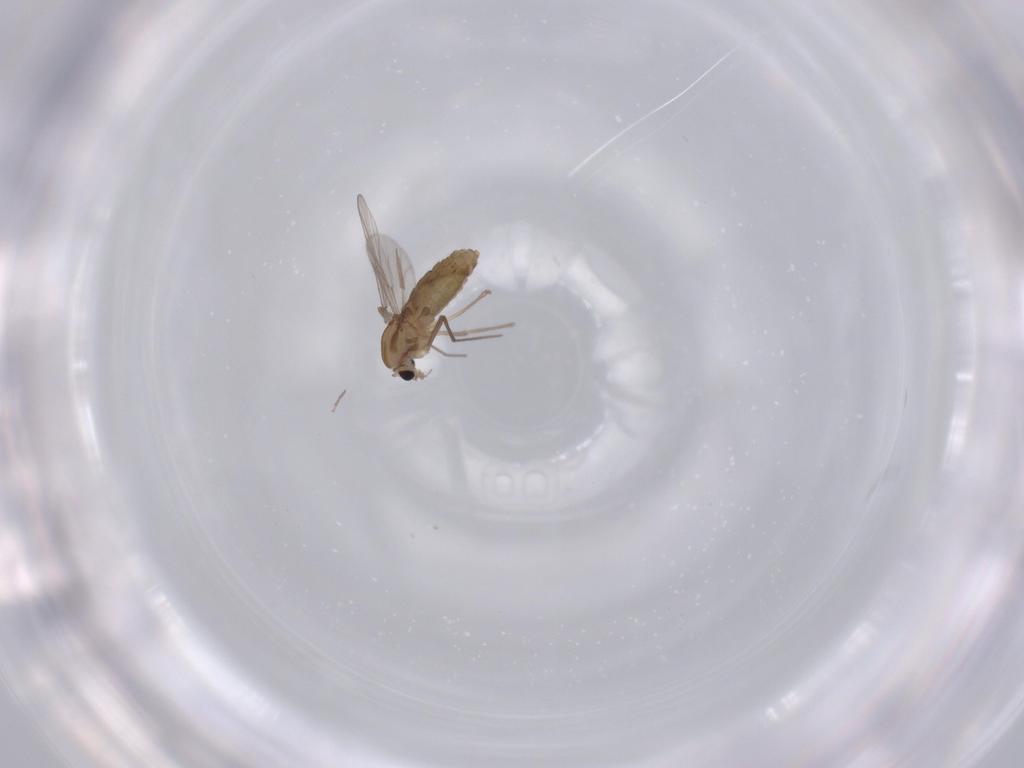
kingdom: Animalia
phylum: Arthropoda
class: Insecta
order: Diptera
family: Chironomidae
